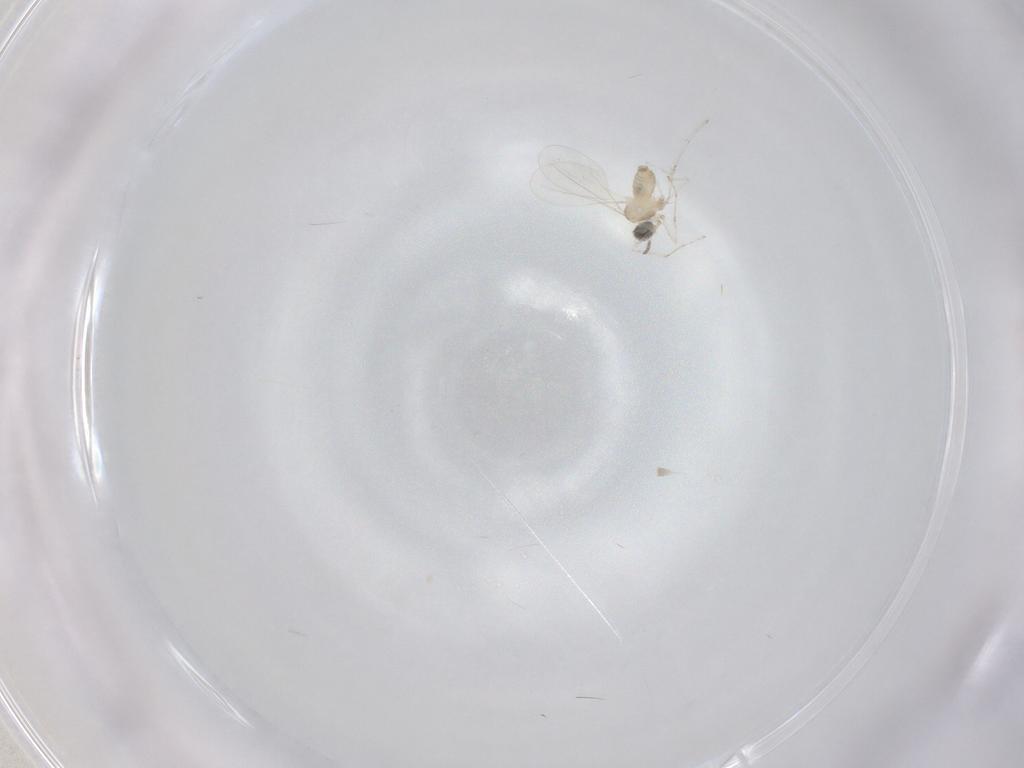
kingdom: Animalia
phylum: Arthropoda
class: Insecta
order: Diptera
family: Cecidomyiidae
